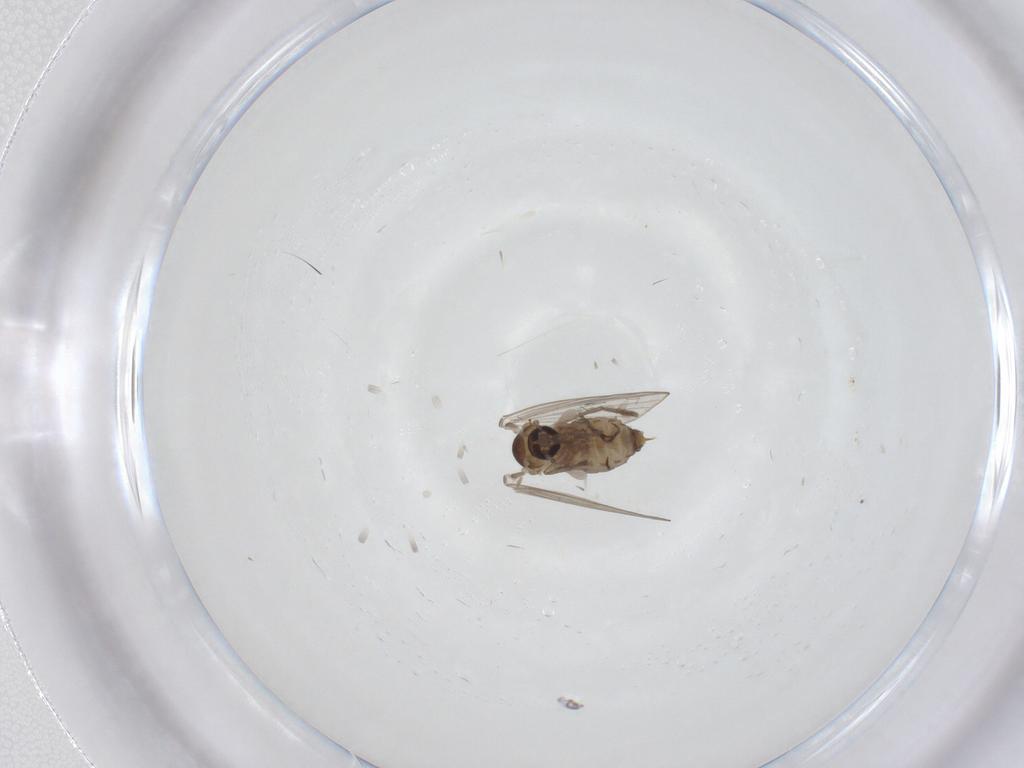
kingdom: Animalia
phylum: Arthropoda
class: Insecta
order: Diptera
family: Psychodidae
